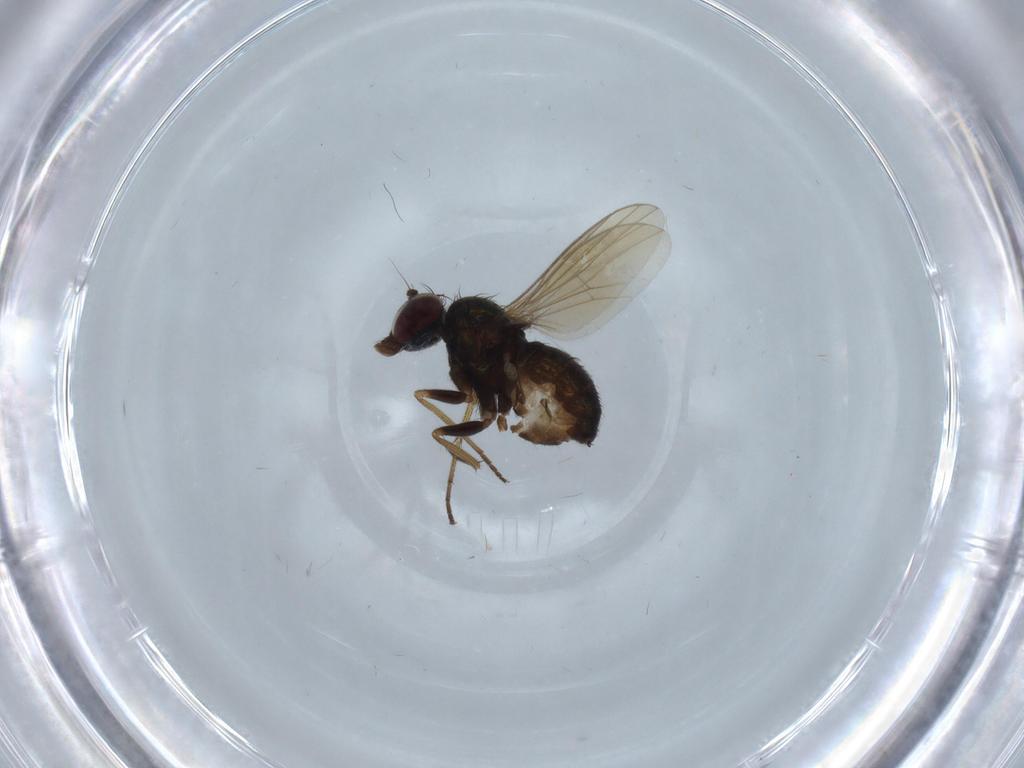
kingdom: Animalia
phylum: Arthropoda
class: Insecta
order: Diptera
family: Dolichopodidae
